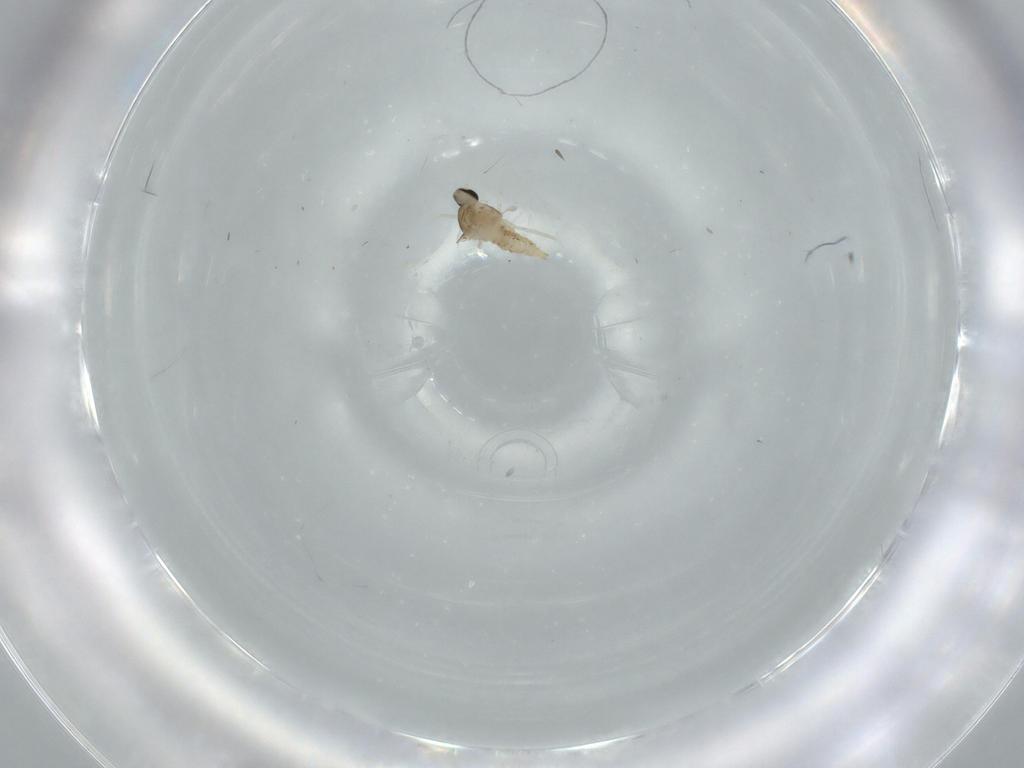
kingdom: Animalia
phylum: Arthropoda
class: Insecta
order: Diptera
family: Cecidomyiidae
